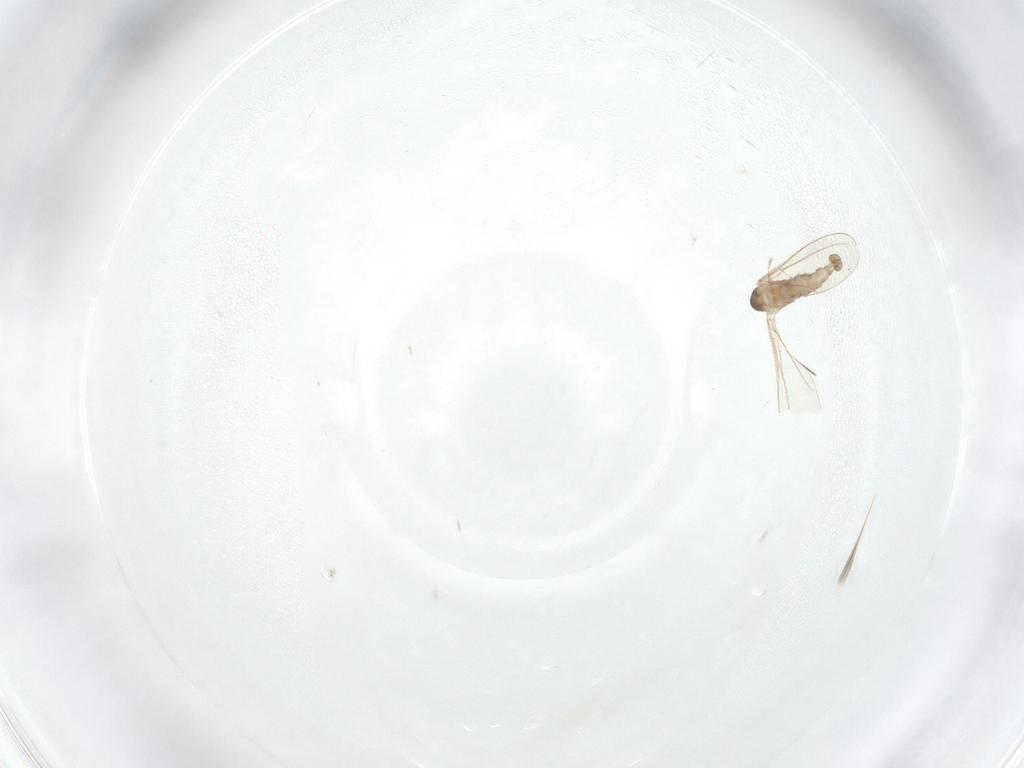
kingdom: Animalia
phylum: Arthropoda
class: Insecta
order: Diptera
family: Cecidomyiidae
